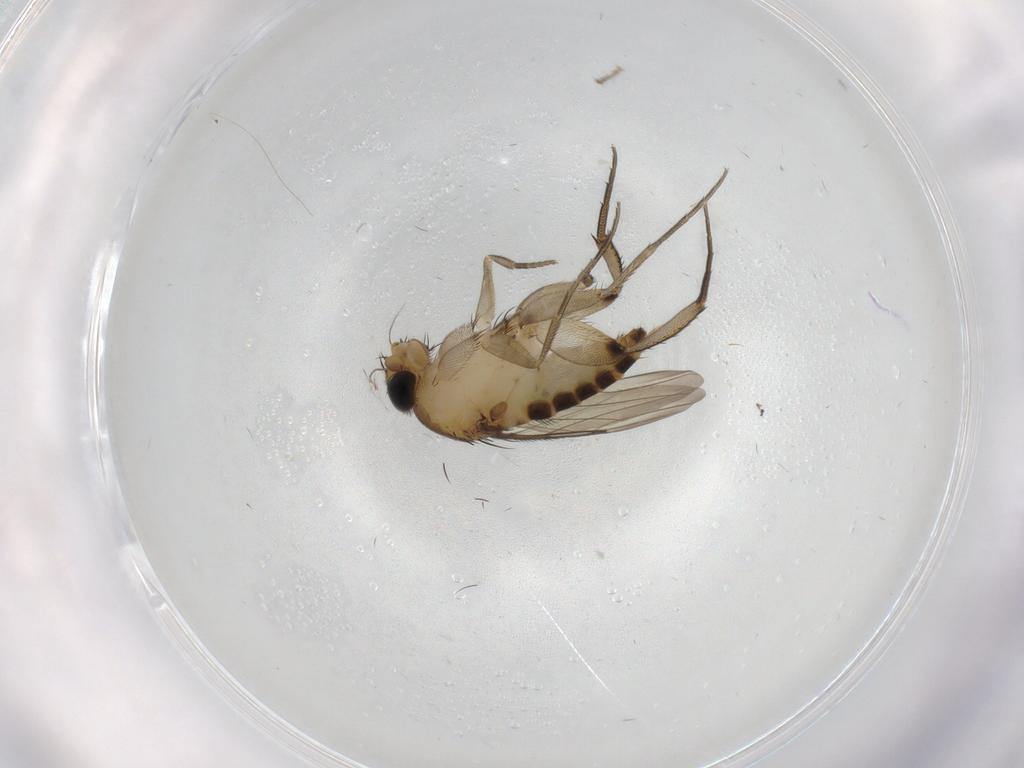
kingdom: Animalia
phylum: Arthropoda
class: Insecta
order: Diptera
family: Phoridae
